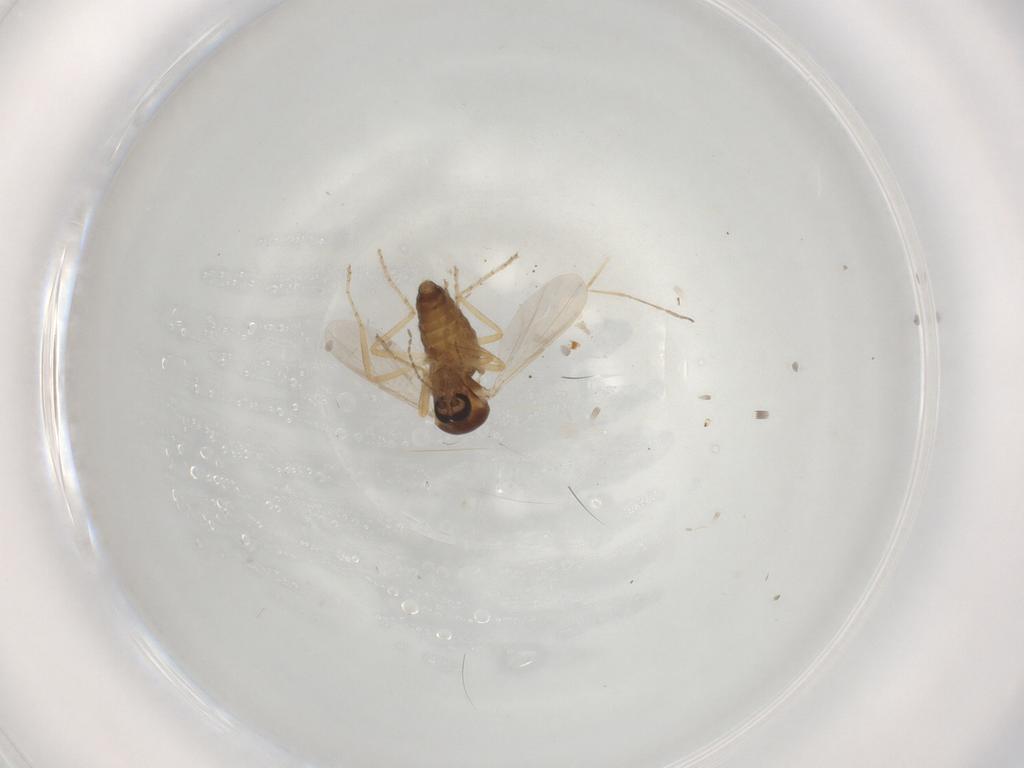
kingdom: Animalia
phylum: Arthropoda
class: Insecta
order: Diptera
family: Ceratopogonidae
